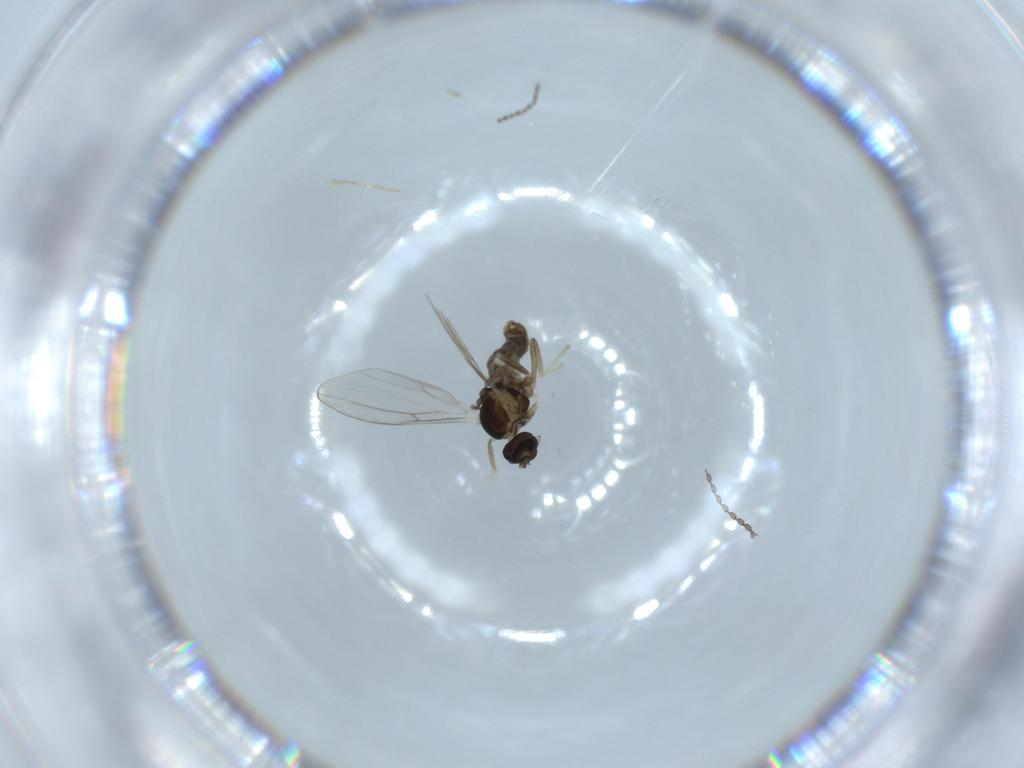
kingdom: Animalia
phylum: Arthropoda
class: Insecta
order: Diptera
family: Cecidomyiidae
